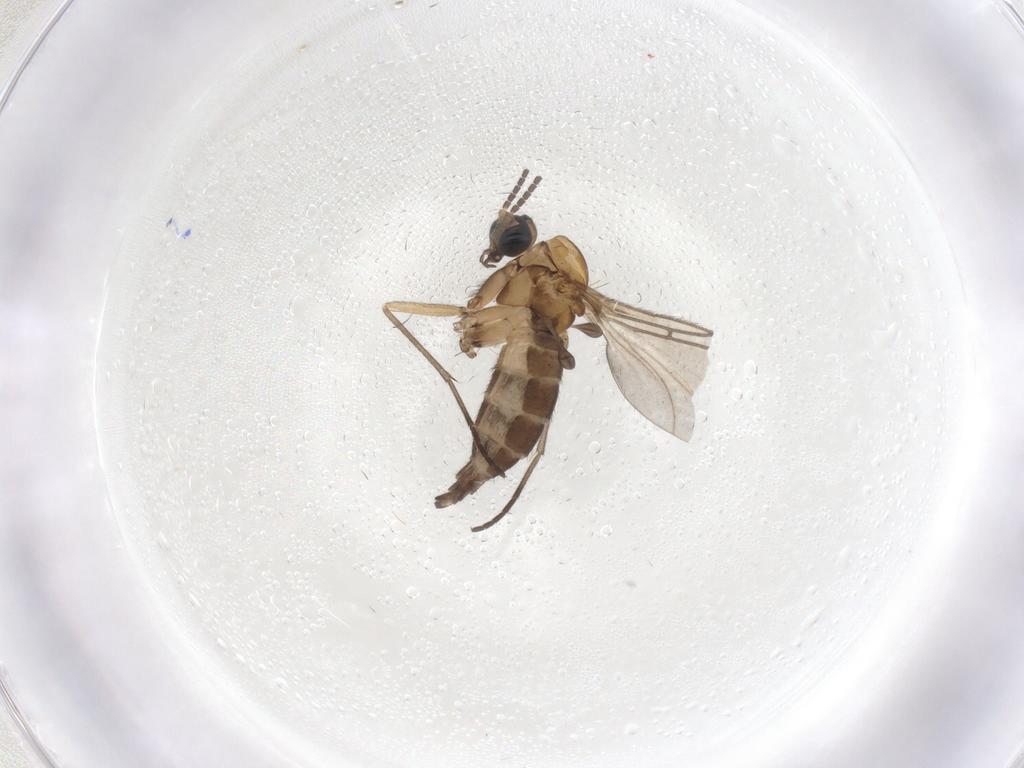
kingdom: Animalia
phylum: Arthropoda
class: Insecta
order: Diptera
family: Sciaridae
